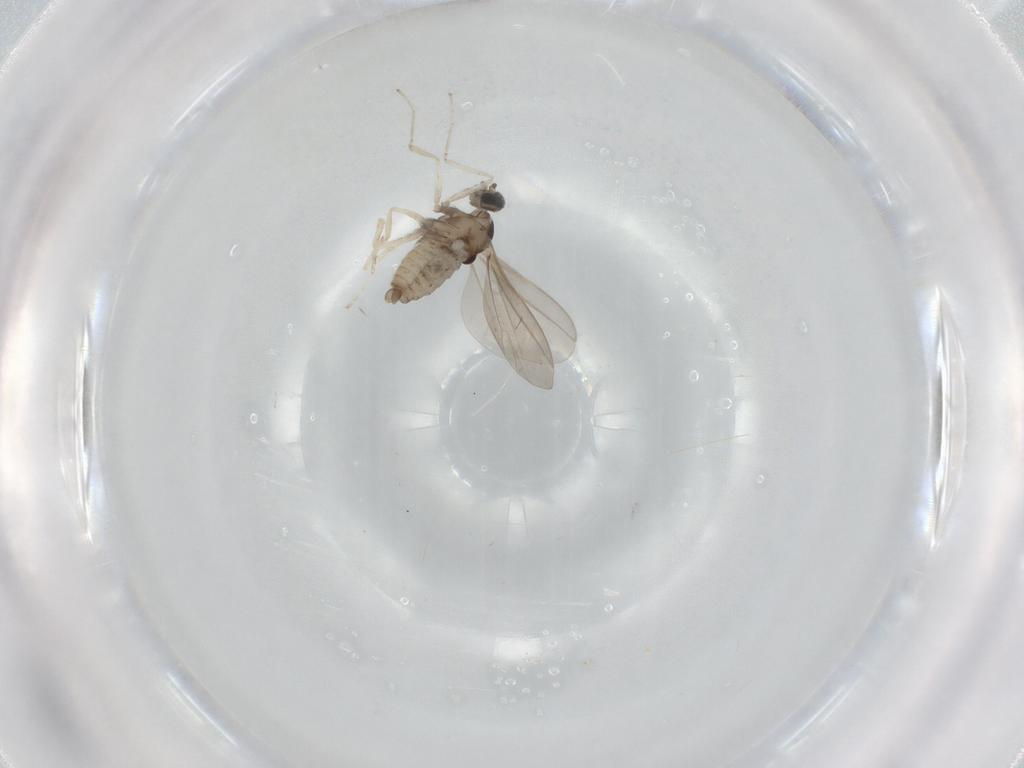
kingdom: Animalia
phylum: Arthropoda
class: Insecta
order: Diptera
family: Cecidomyiidae
